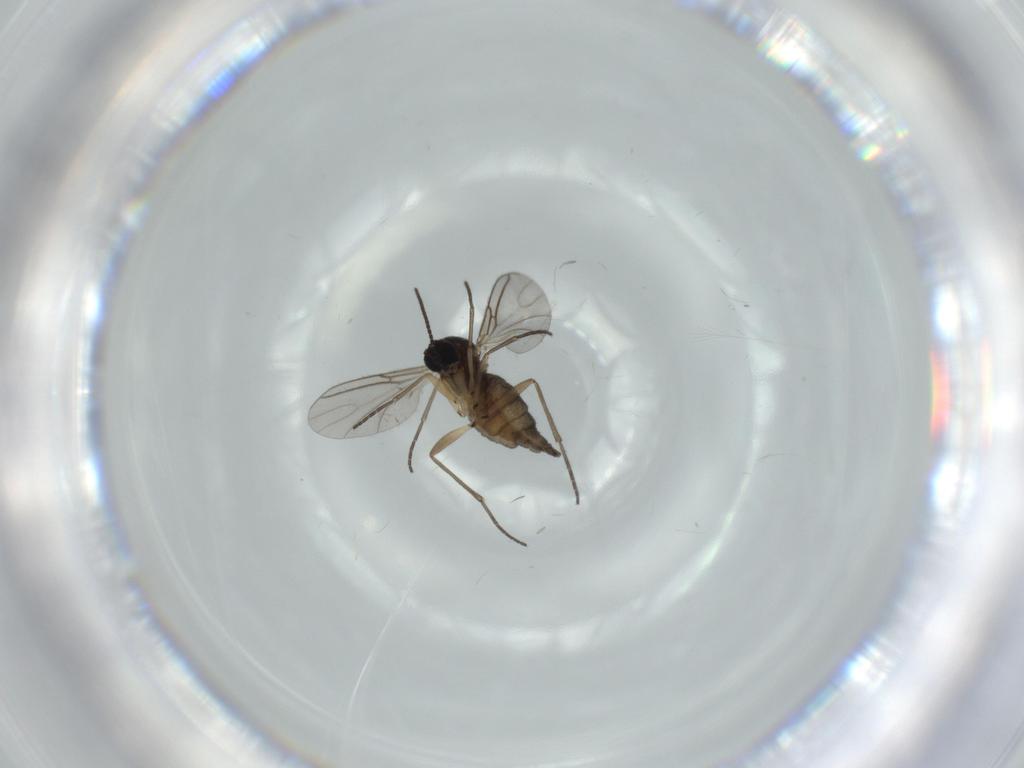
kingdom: Animalia
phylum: Arthropoda
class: Insecta
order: Diptera
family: Sciaridae
